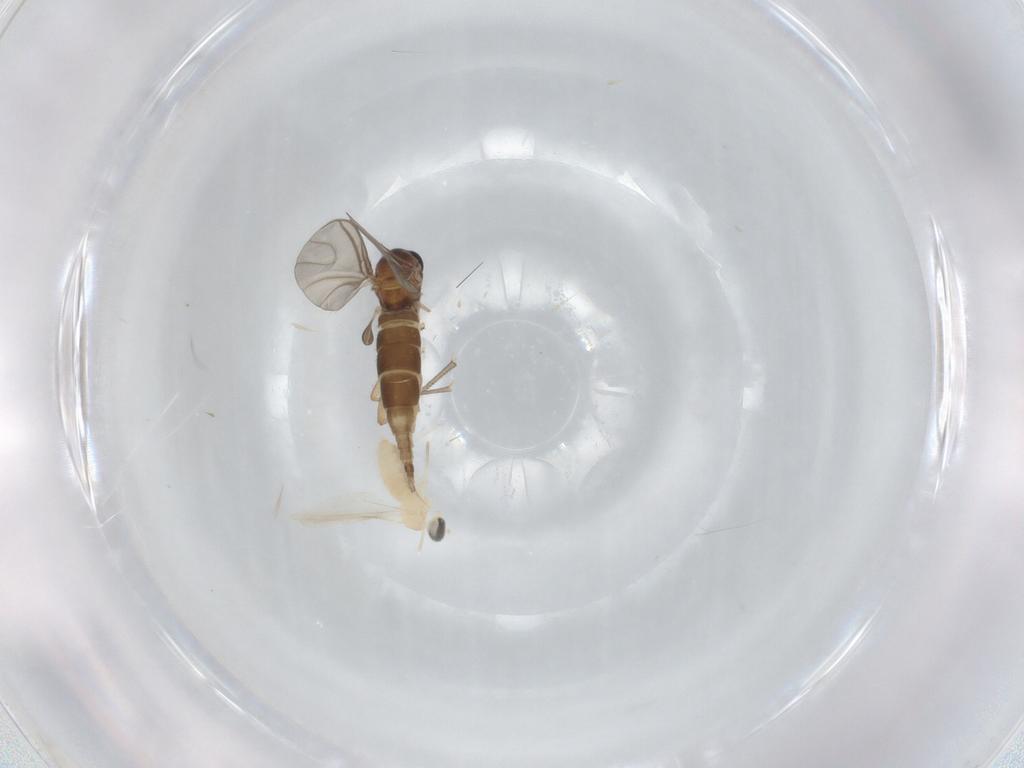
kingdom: Animalia
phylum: Arthropoda
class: Insecta
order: Diptera
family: Sciaridae
